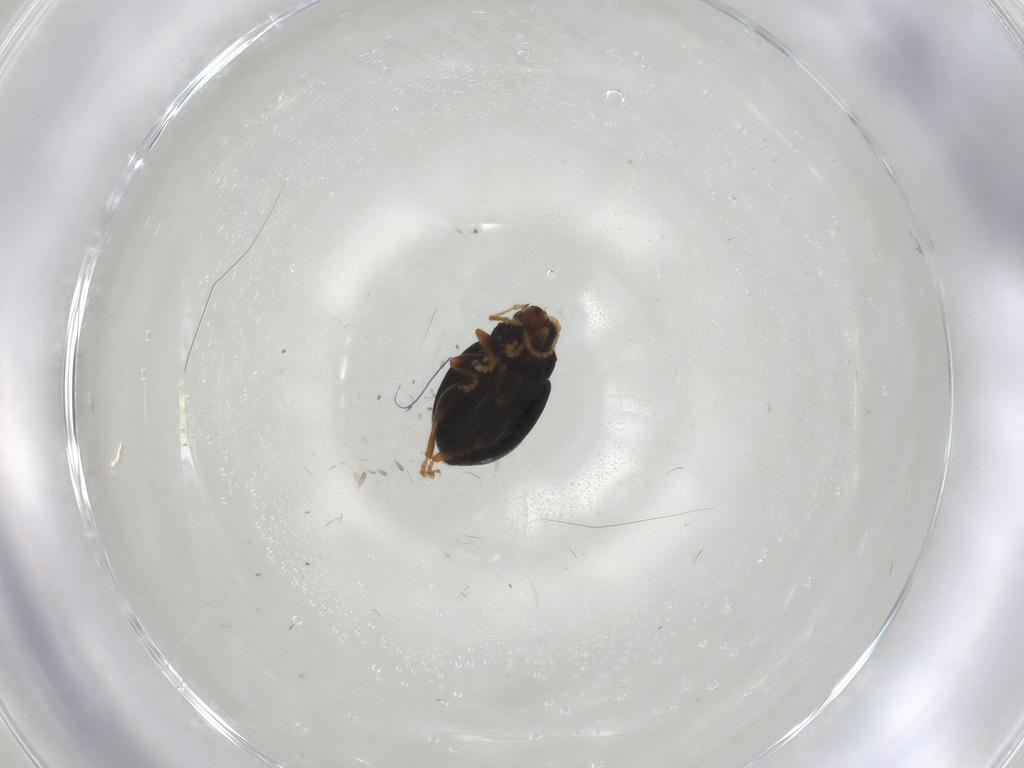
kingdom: Animalia
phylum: Arthropoda
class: Insecta
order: Coleoptera
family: Chrysomelidae
